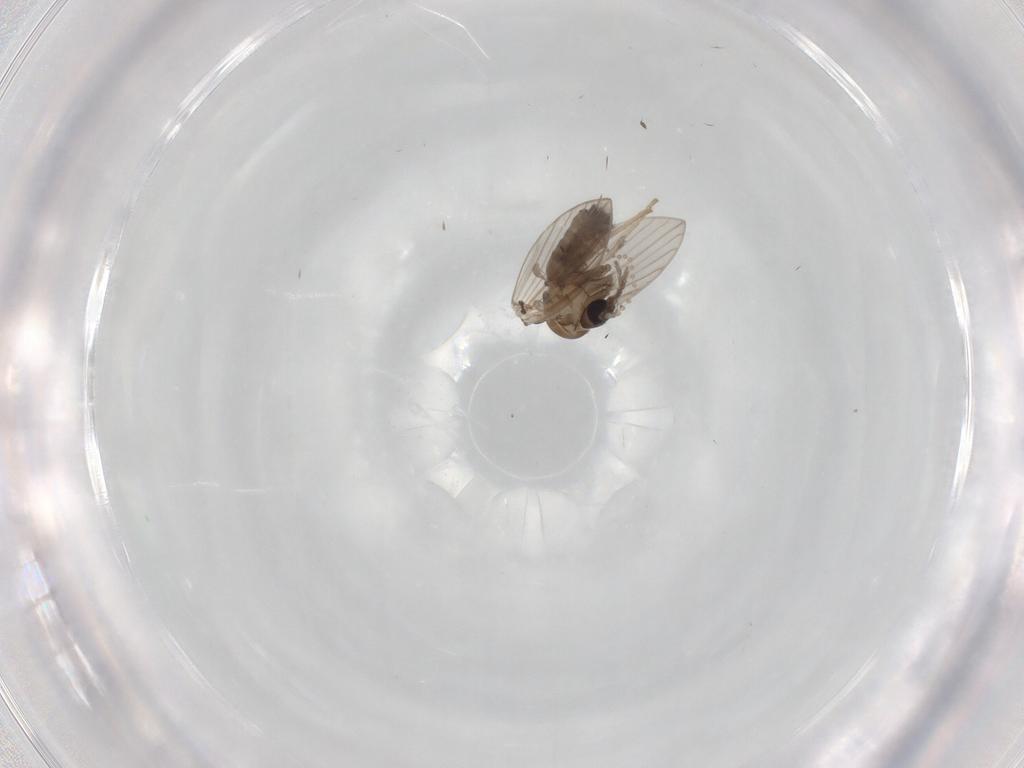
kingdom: Animalia
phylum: Arthropoda
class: Insecta
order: Diptera
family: Psychodidae
